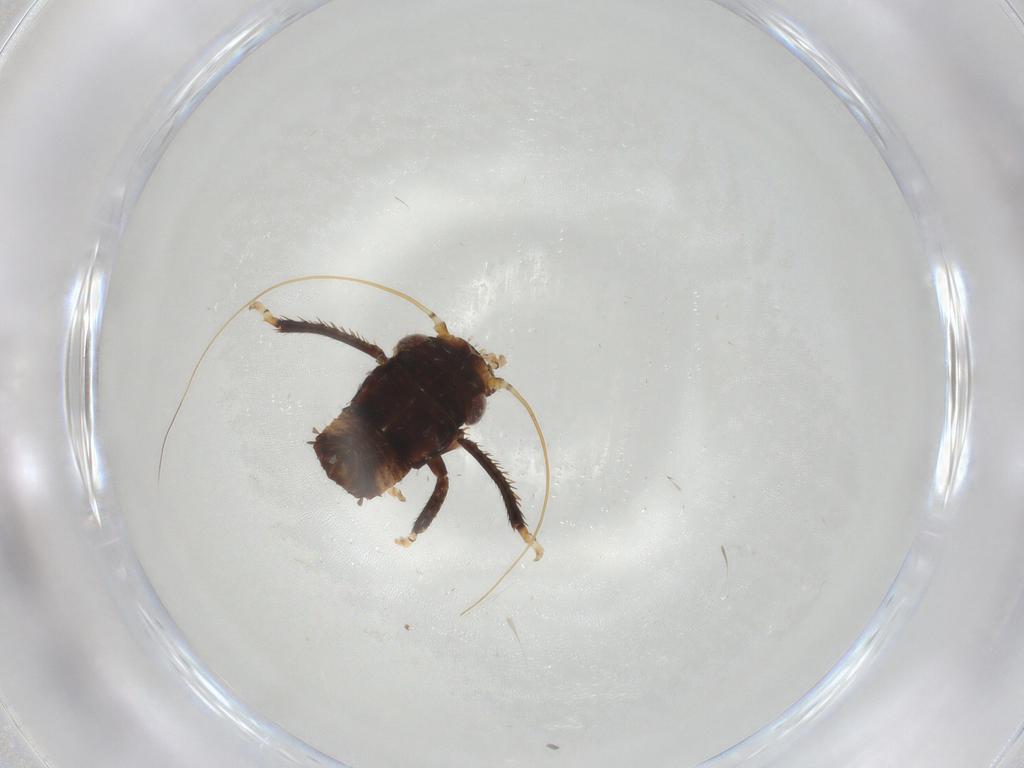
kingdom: Animalia
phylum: Arthropoda
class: Insecta
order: Hemiptera
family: Cicadellidae
